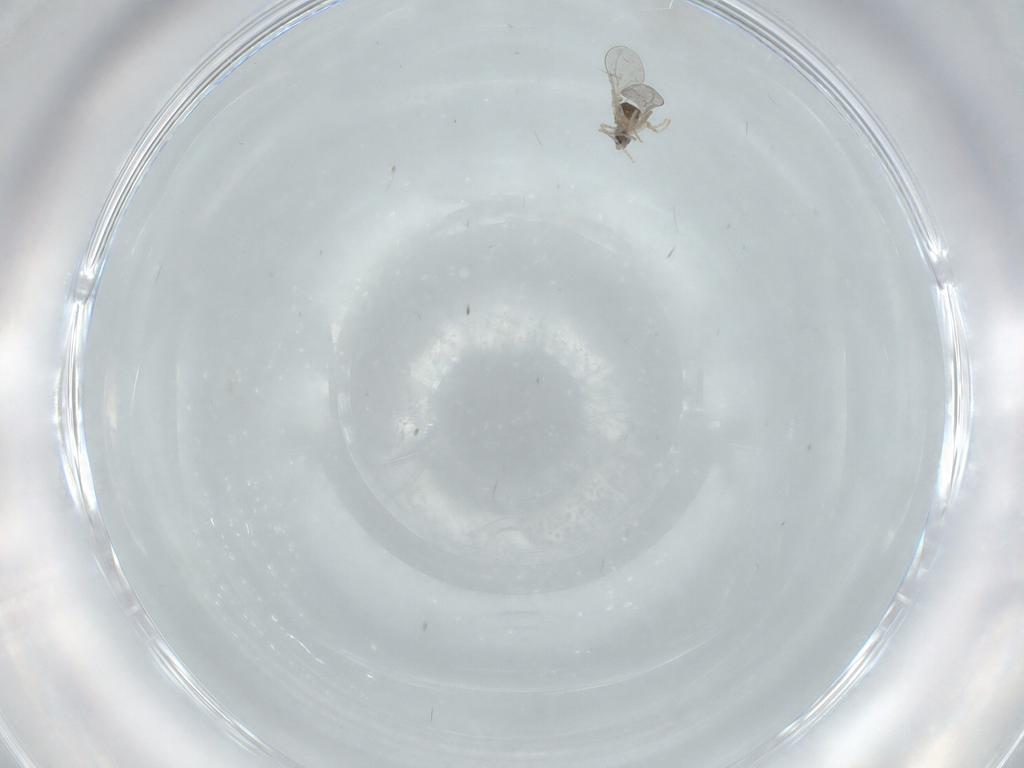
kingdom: Animalia
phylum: Arthropoda
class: Insecta
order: Diptera
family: Cecidomyiidae
